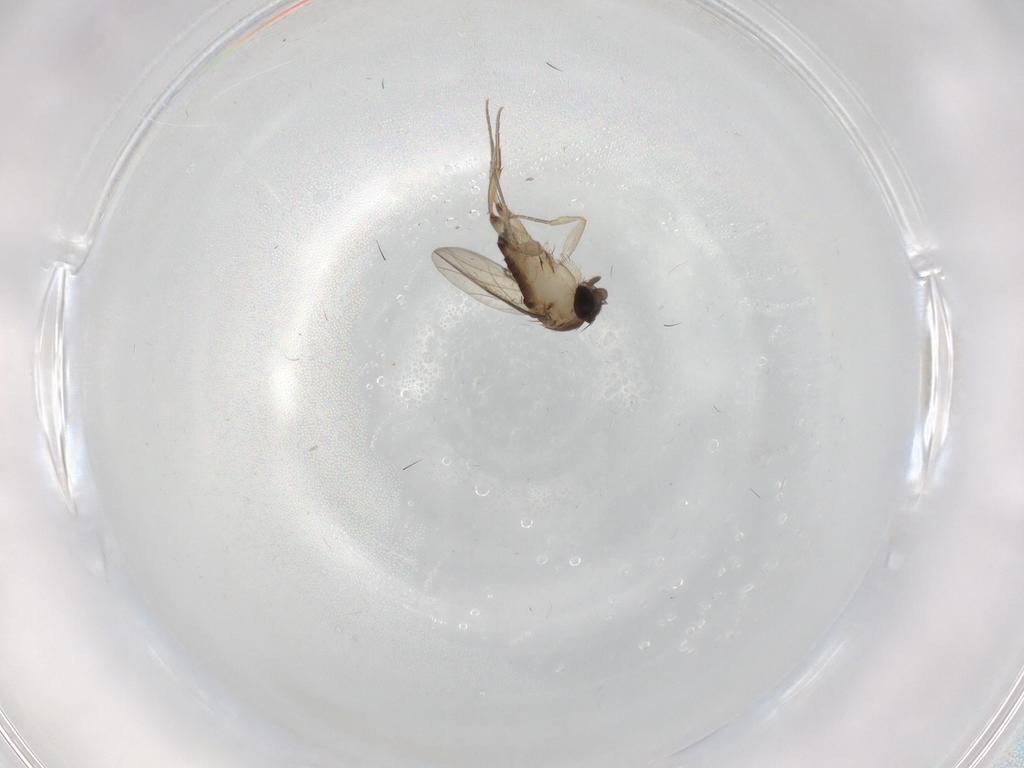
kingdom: Animalia
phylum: Arthropoda
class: Insecta
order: Diptera
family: Phoridae
